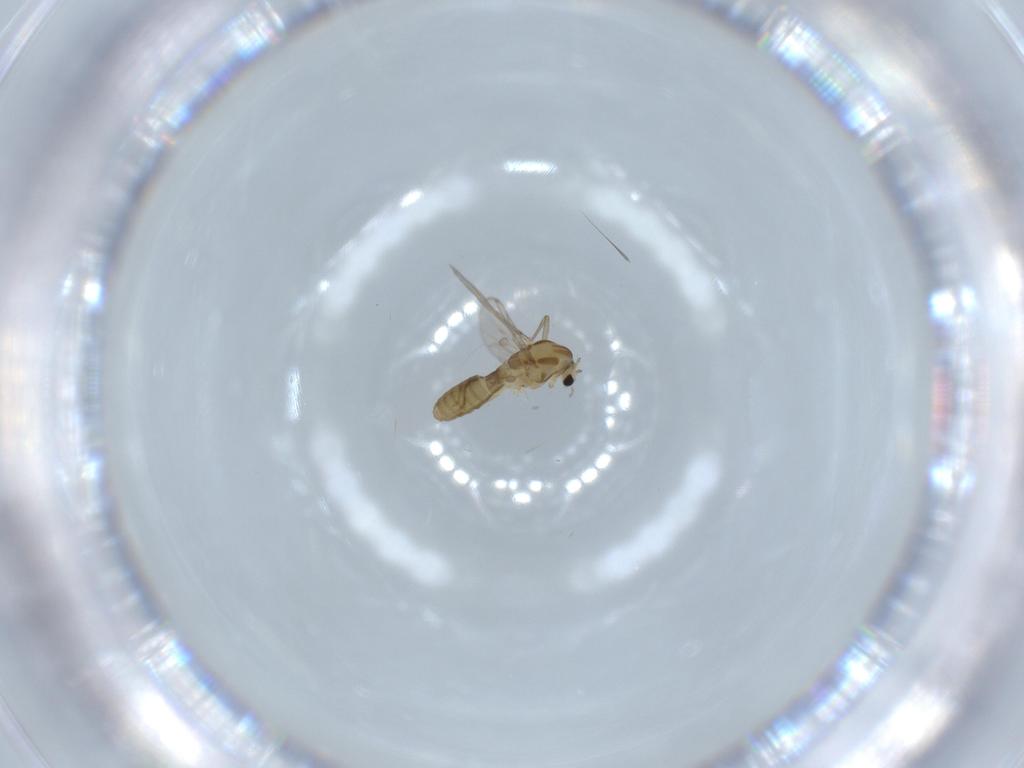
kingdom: Animalia
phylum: Arthropoda
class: Insecta
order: Diptera
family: Chironomidae
